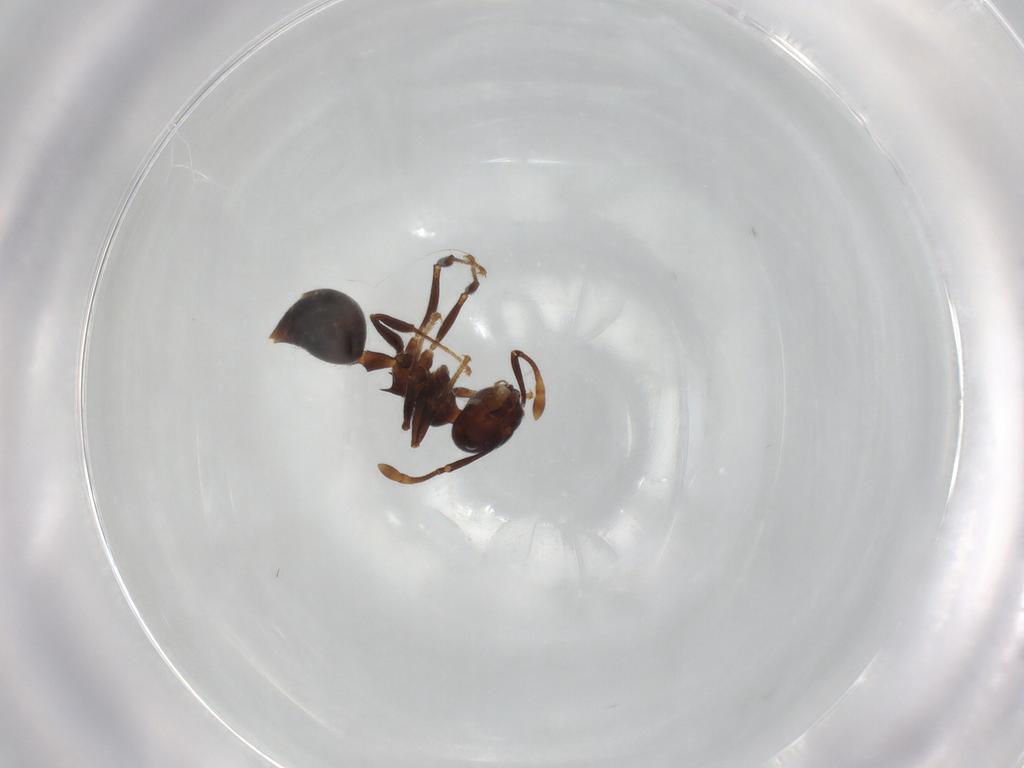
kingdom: Animalia
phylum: Arthropoda
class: Insecta
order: Hymenoptera
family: Formicidae
